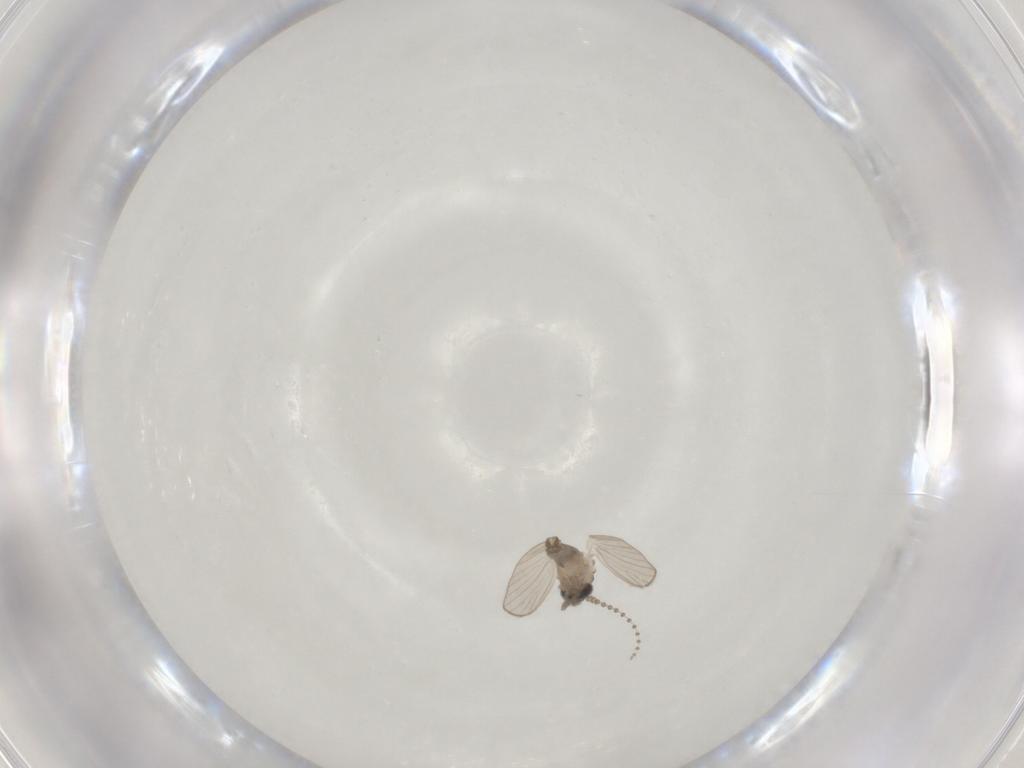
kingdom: Animalia
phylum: Arthropoda
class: Insecta
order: Diptera
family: Psychodidae
